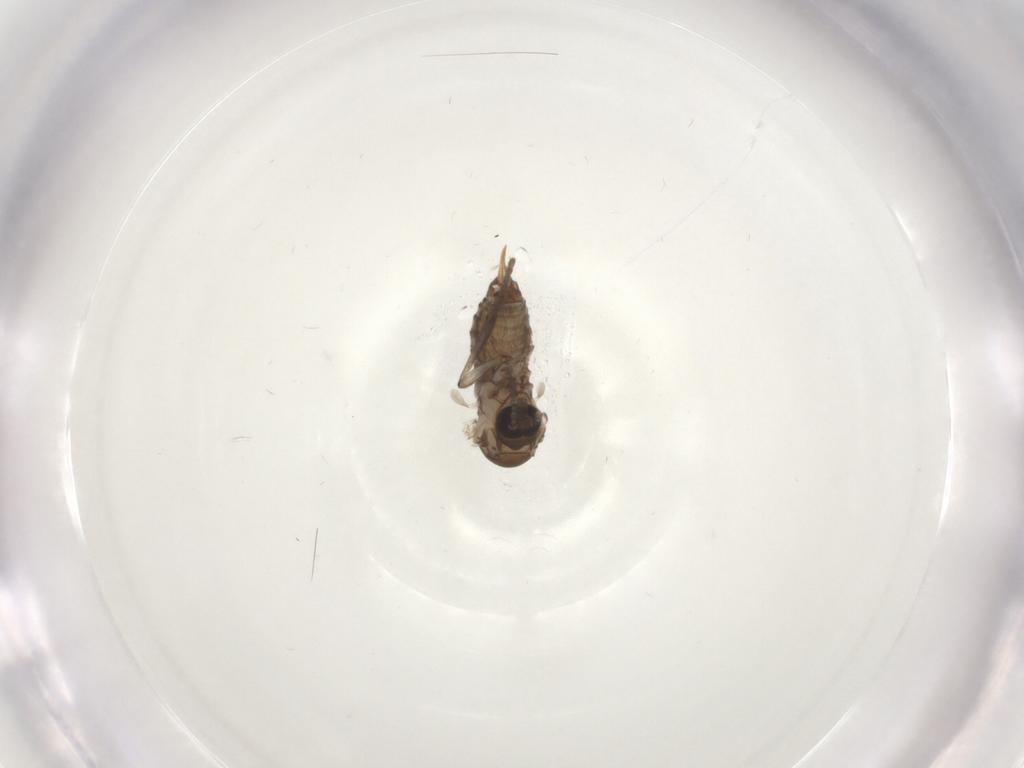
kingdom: Animalia
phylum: Arthropoda
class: Insecta
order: Diptera
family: Psychodidae
